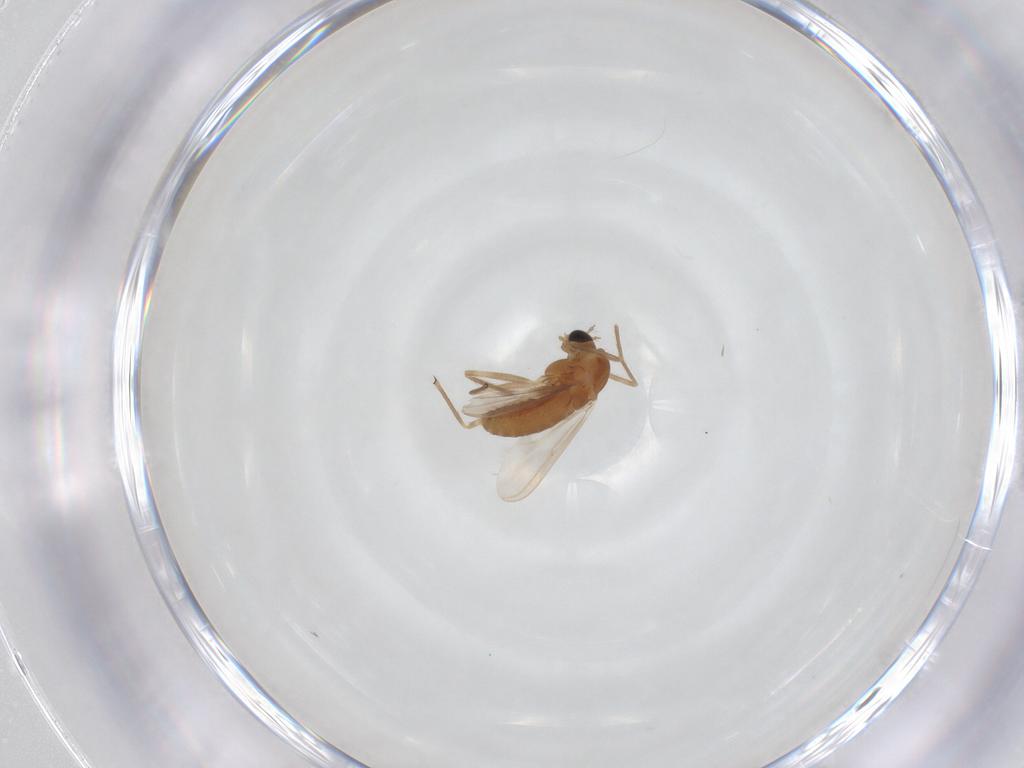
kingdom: Animalia
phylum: Arthropoda
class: Insecta
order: Diptera
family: Chironomidae
